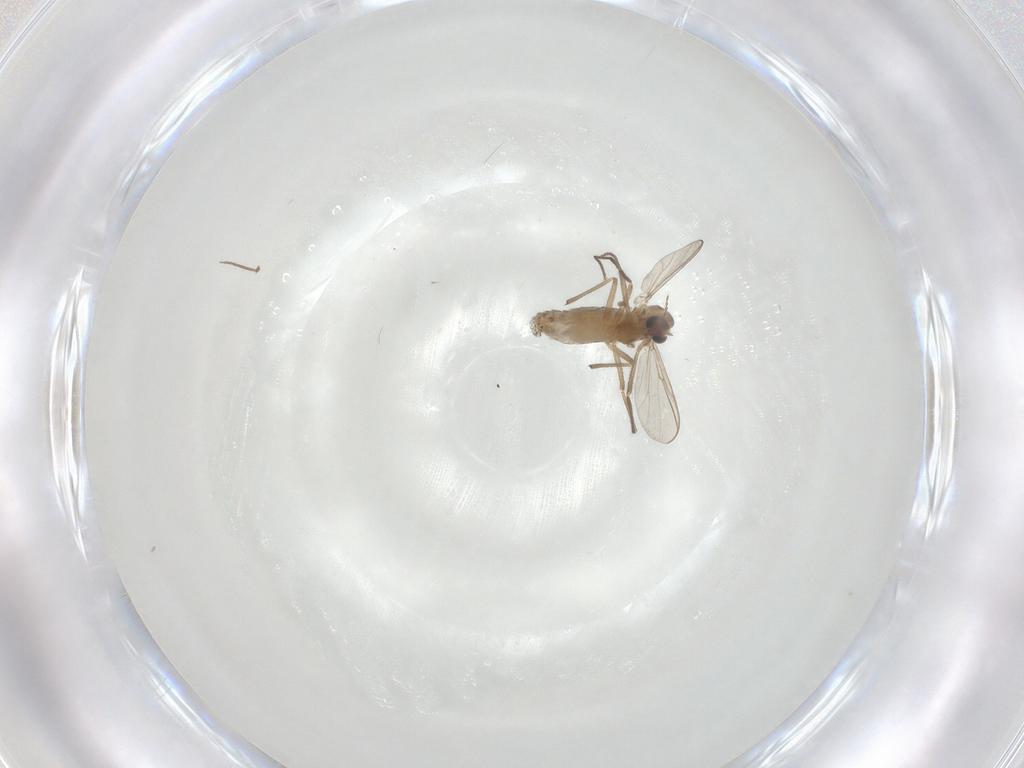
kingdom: Animalia
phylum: Arthropoda
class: Insecta
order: Diptera
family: Chironomidae
